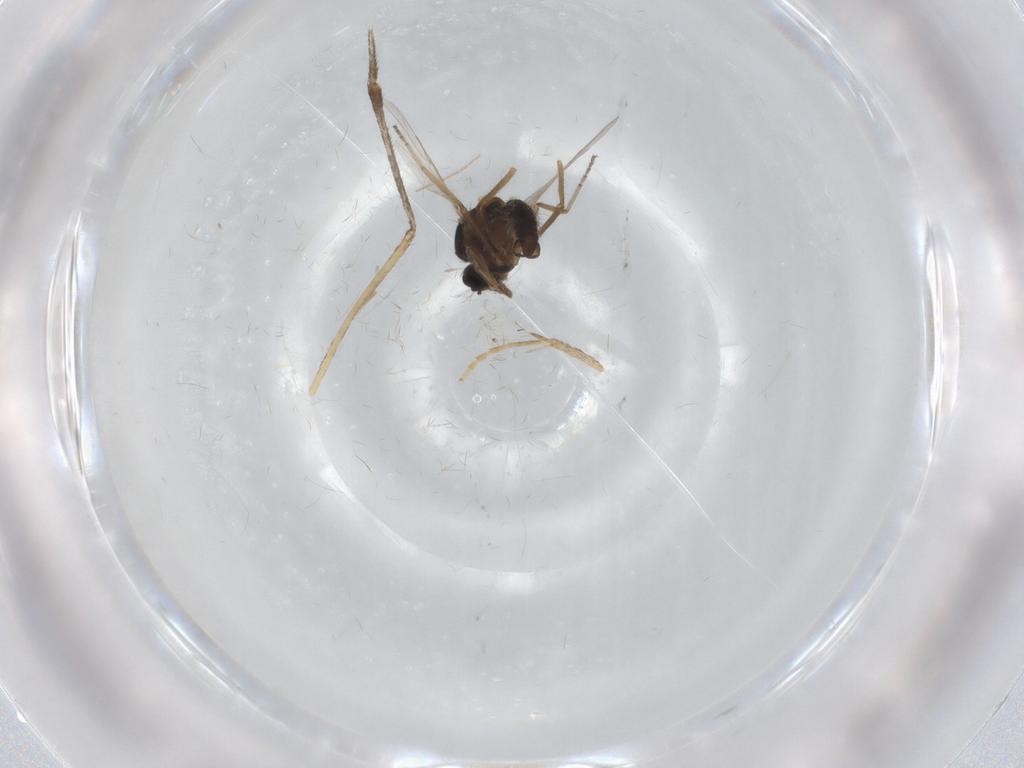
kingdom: Animalia
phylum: Arthropoda
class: Insecta
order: Diptera
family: Ceratopogonidae
